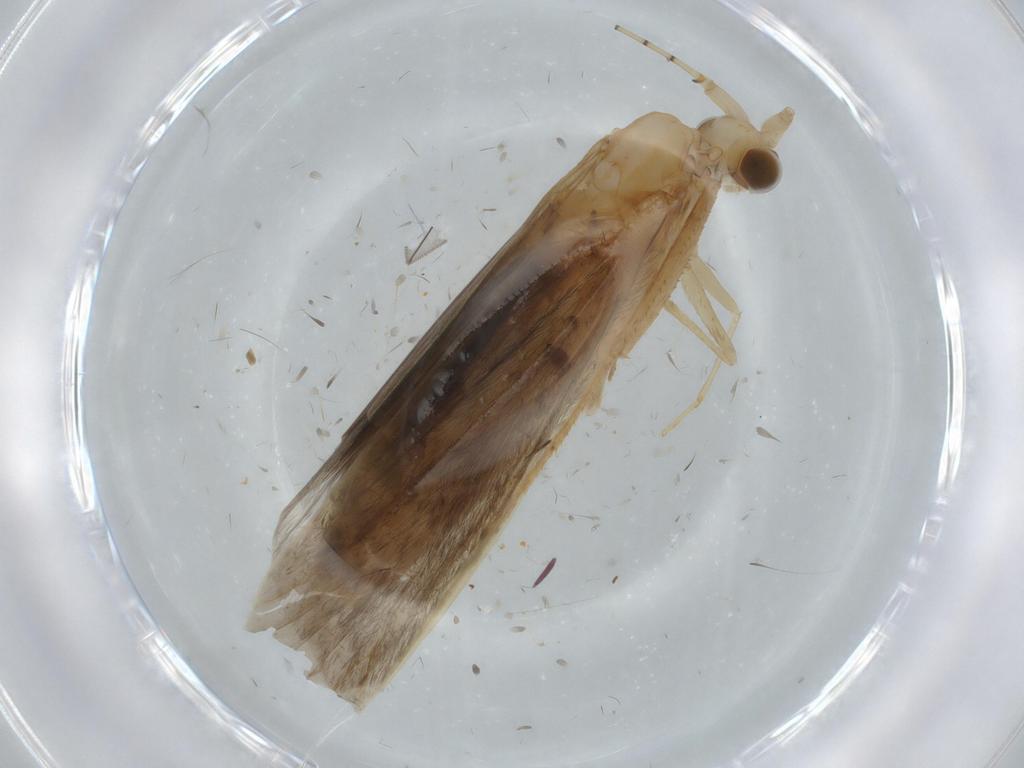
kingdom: Animalia
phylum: Arthropoda
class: Insecta
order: Trichoptera
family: Leptoceridae
